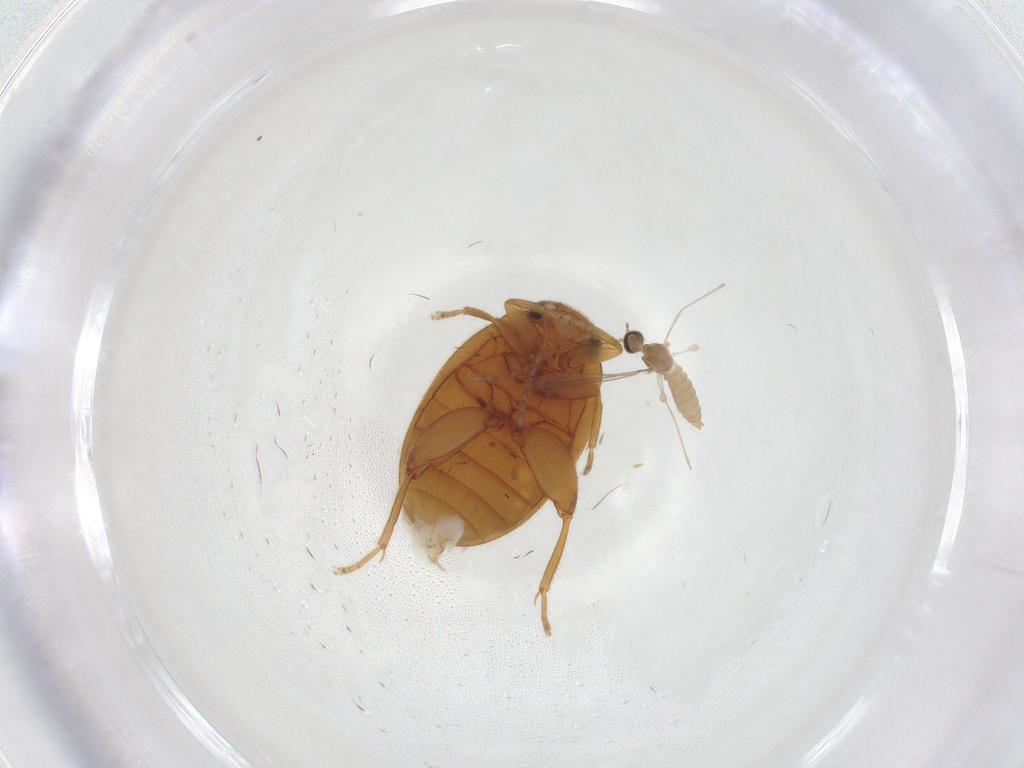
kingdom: Animalia
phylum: Arthropoda
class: Insecta
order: Diptera
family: Cecidomyiidae
